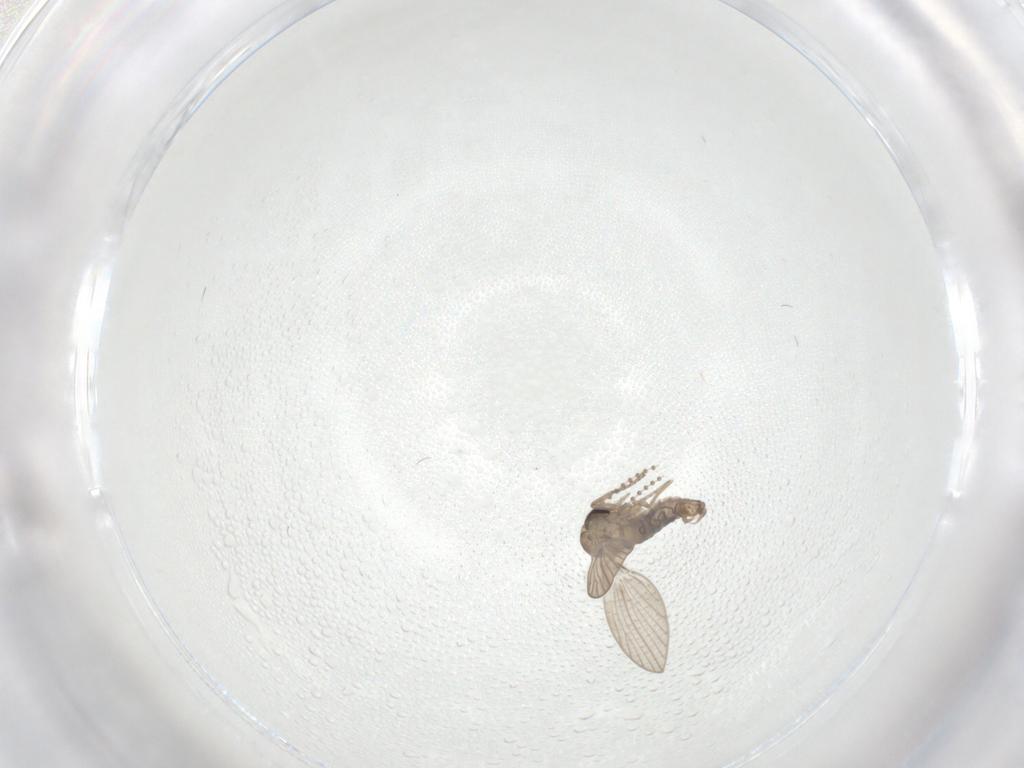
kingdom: Animalia
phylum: Arthropoda
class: Insecta
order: Diptera
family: Psychodidae
